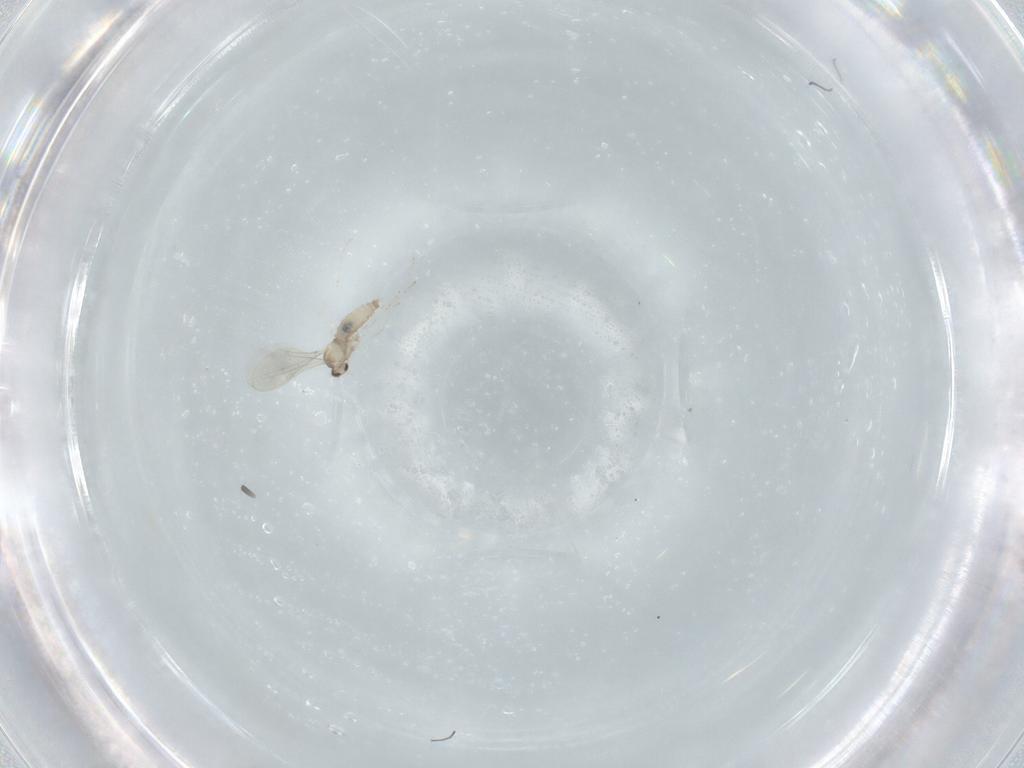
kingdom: Animalia
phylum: Arthropoda
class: Insecta
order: Diptera
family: Cecidomyiidae
